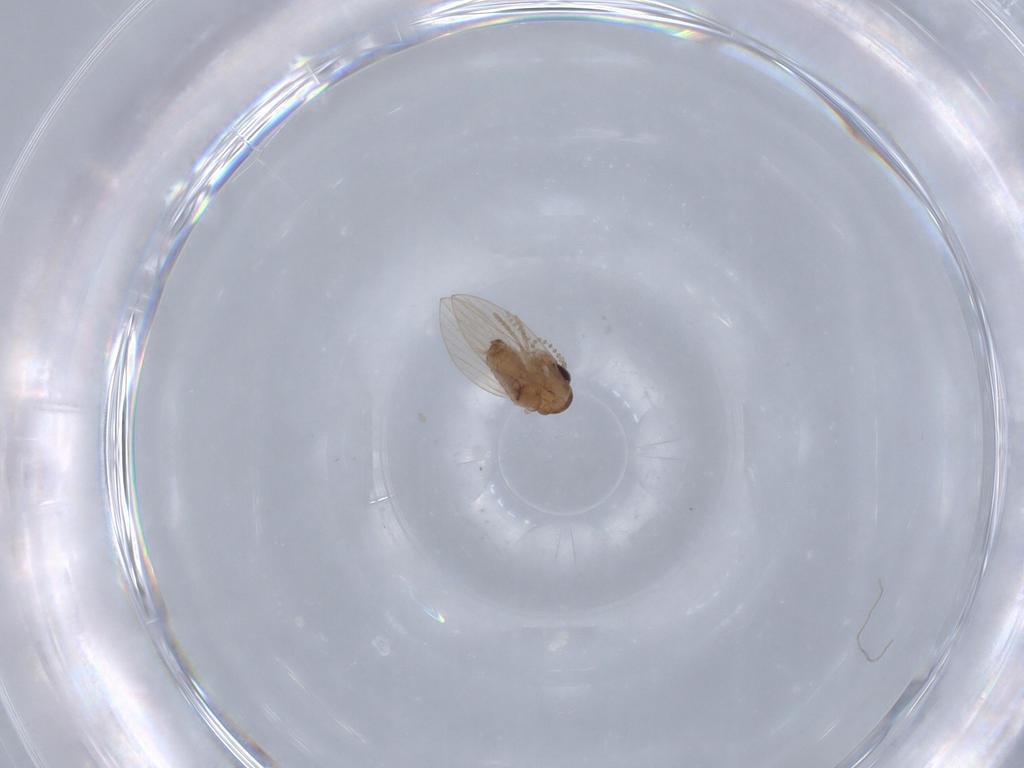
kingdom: Animalia
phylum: Arthropoda
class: Insecta
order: Diptera
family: Psychodidae
